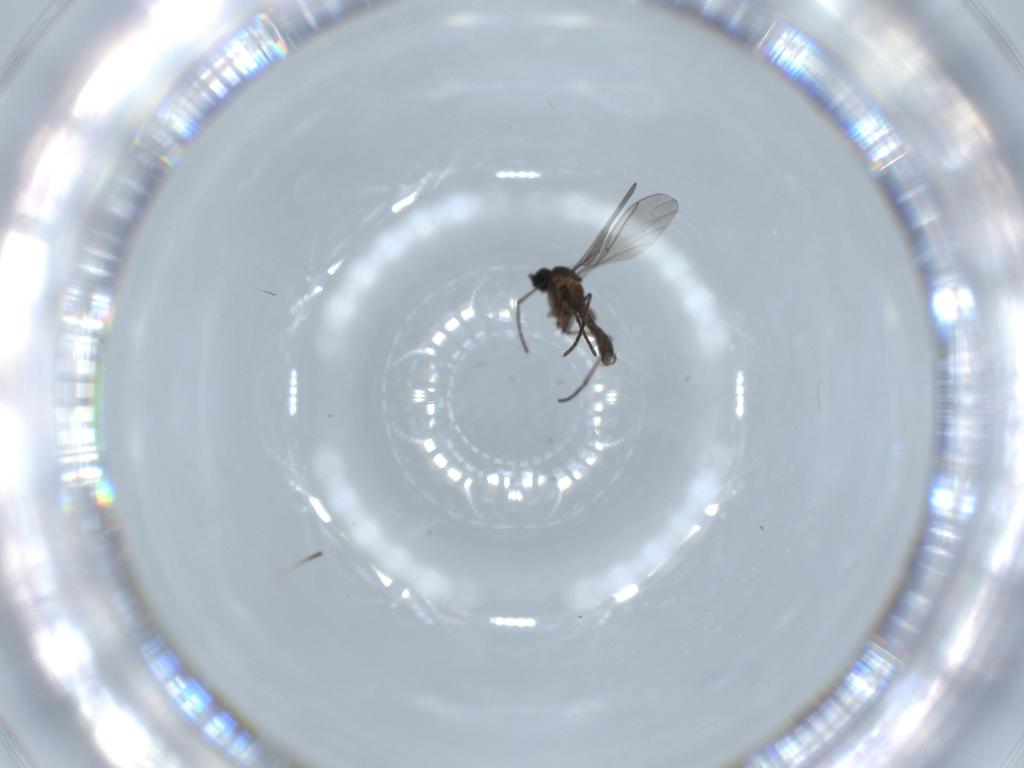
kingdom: Animalia
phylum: Arthropoda
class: Insecta
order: Diptera
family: Sciaridae
